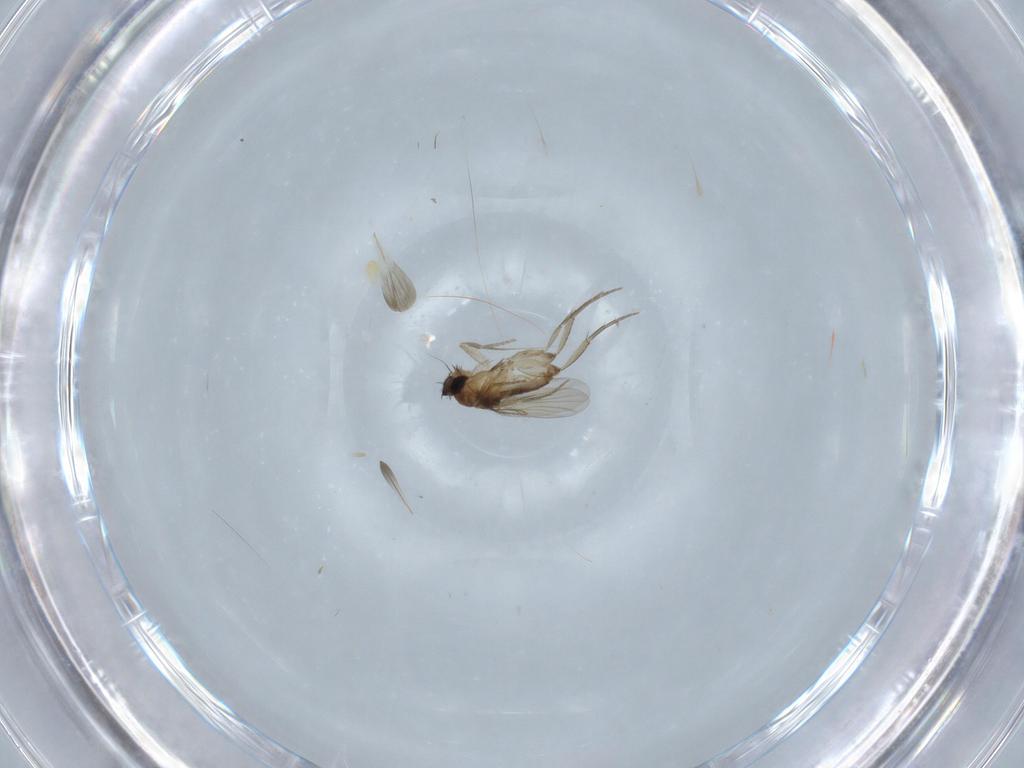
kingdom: Animalia
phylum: Arthropoda
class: Insecta
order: Diptera
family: Phoridae
